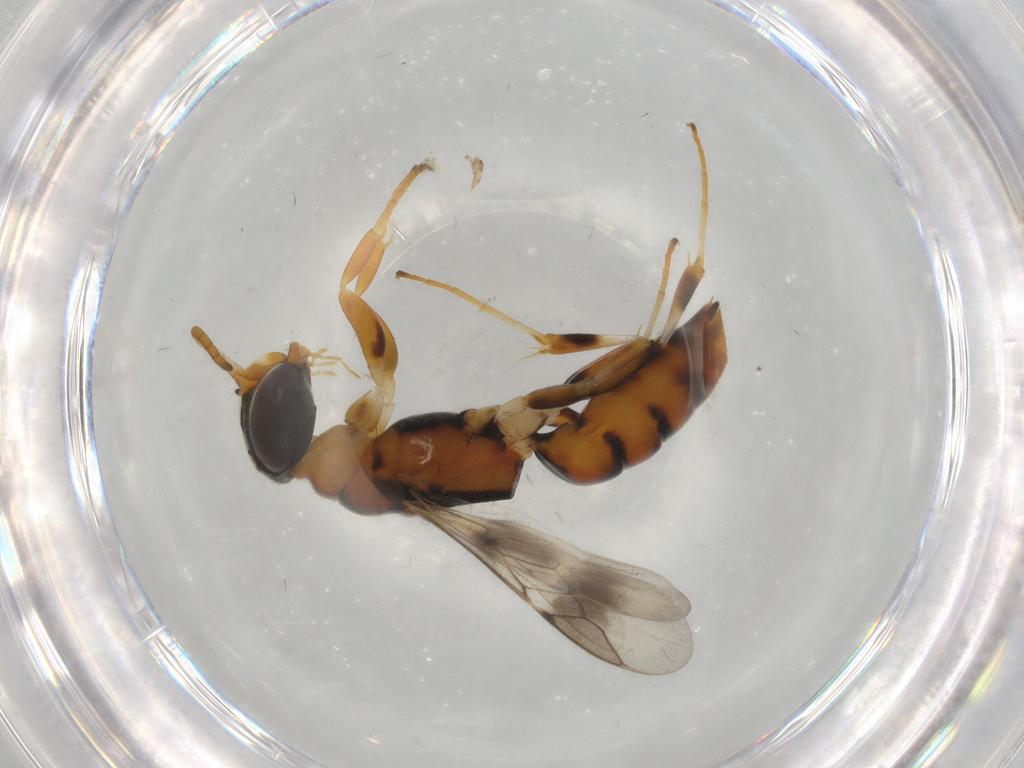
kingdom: Animalia
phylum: Arthropoda
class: Insecta
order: Hymenoptera
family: Bethylidae
